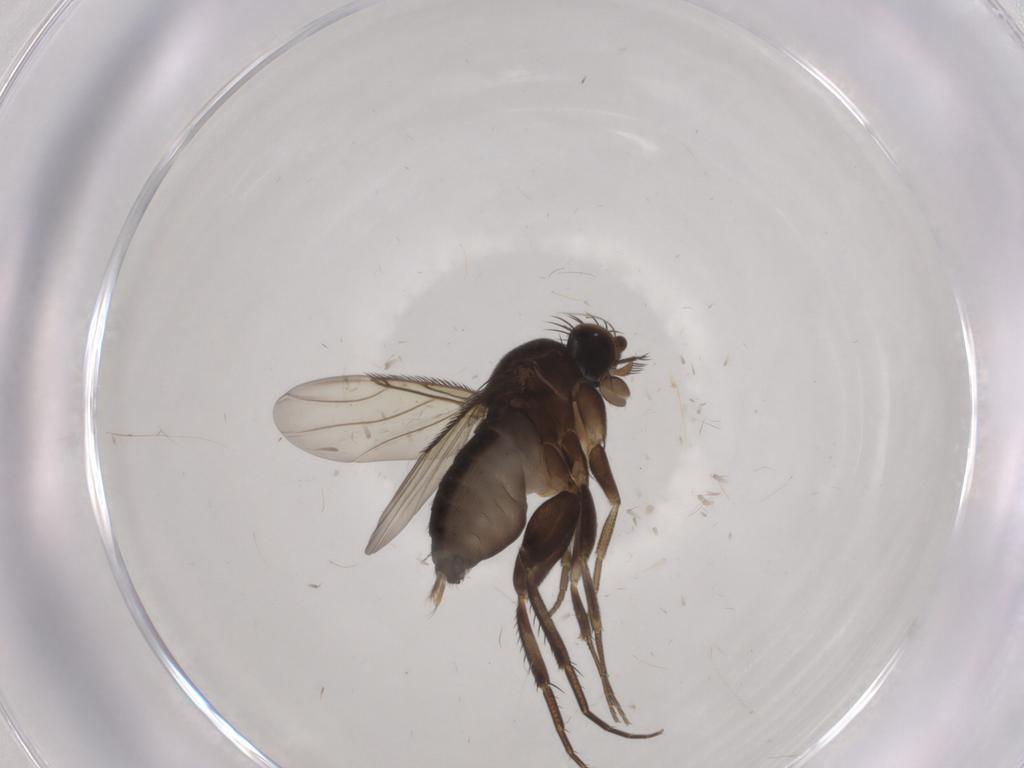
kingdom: Animalia
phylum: Arthropoda
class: Insecta
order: Diptera
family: Phoridae
